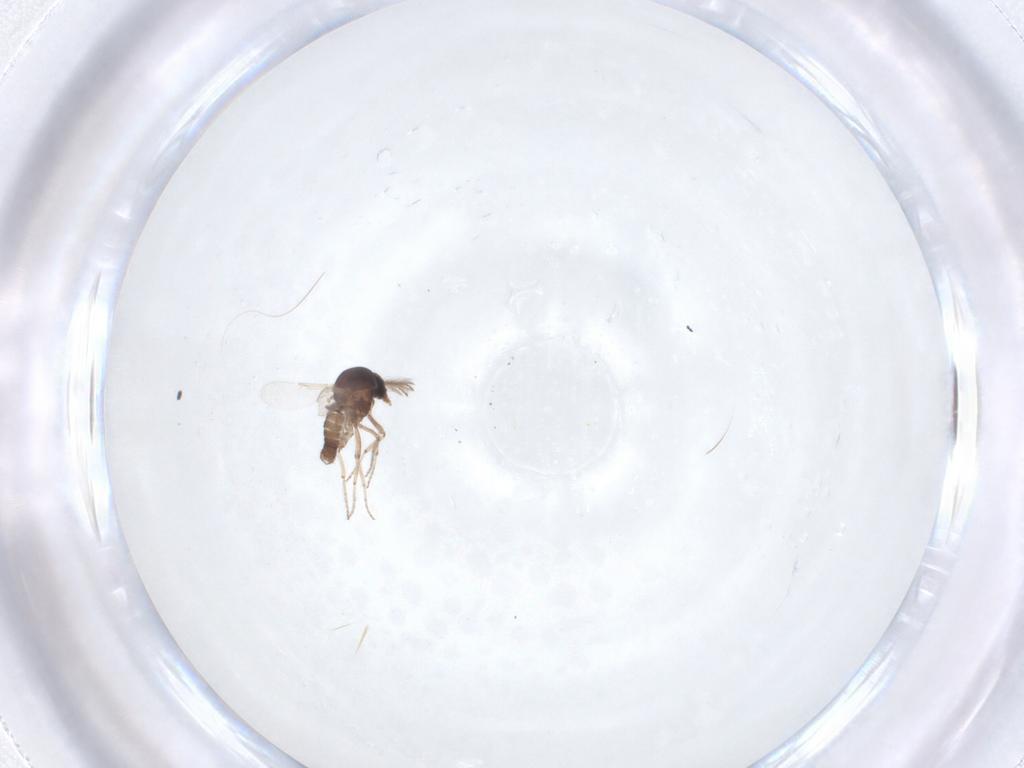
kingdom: Animalia
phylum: Arthropoda
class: Insecta
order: Diptera
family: Ceratopogonidae
